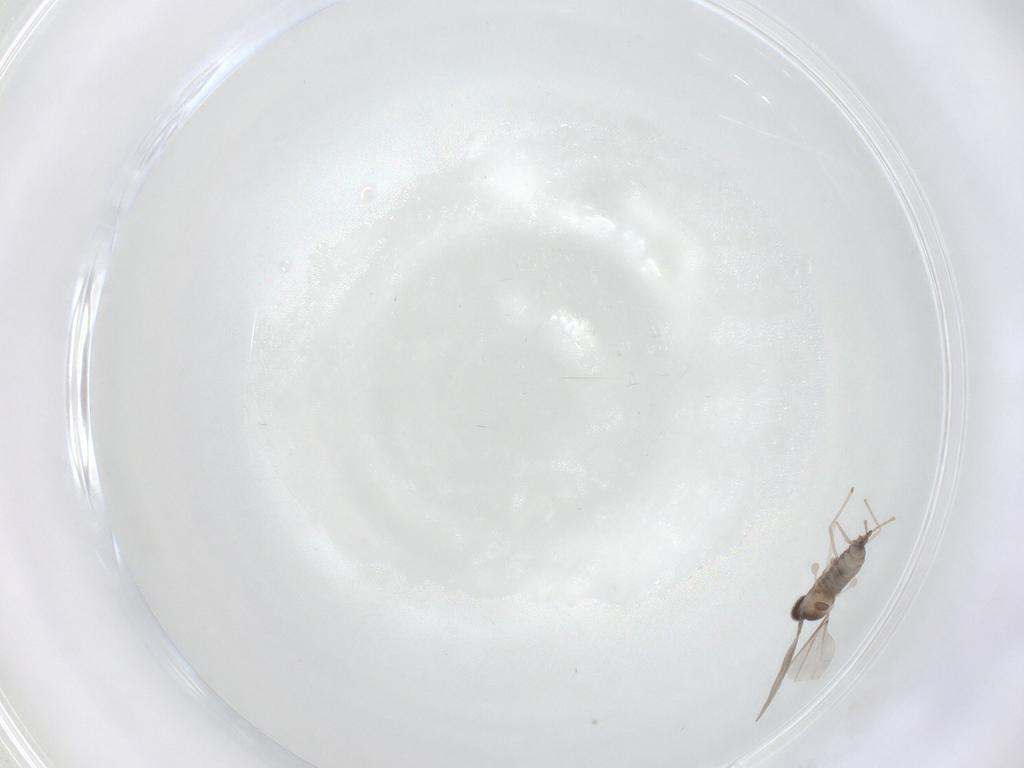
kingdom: Animalia
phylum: Arthropoda
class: Insecta
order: Diptera
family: Cecidomyiidae
